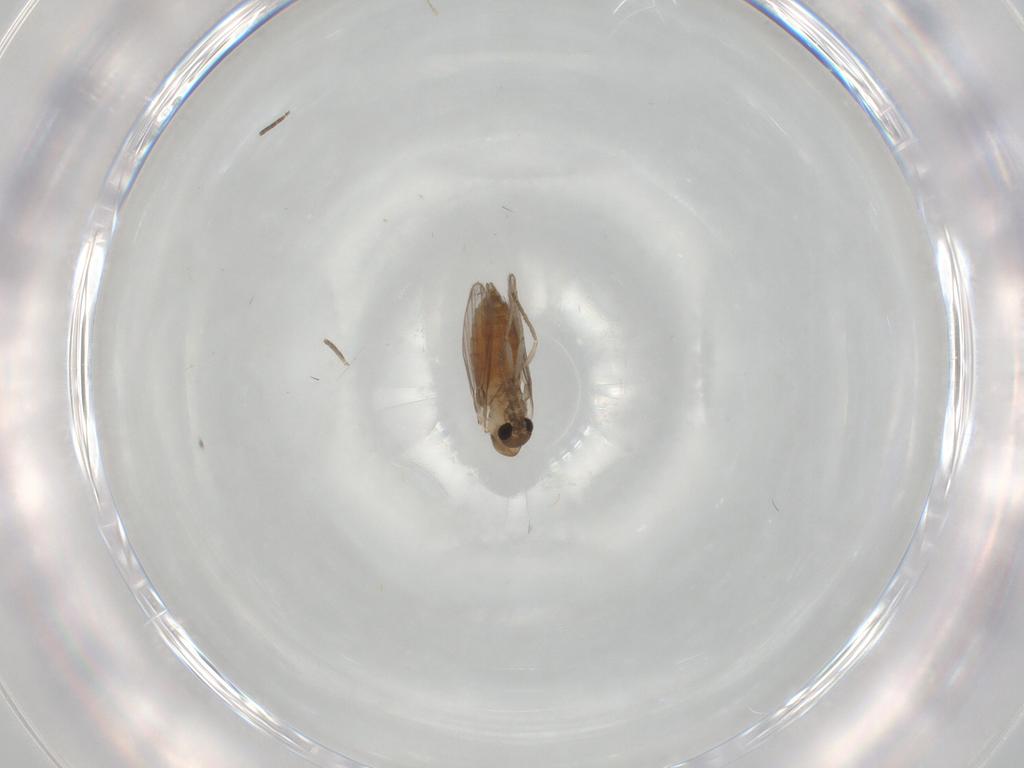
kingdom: Animalia
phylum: Arthropoda
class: Insecta
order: Diptera
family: Psychodidae
